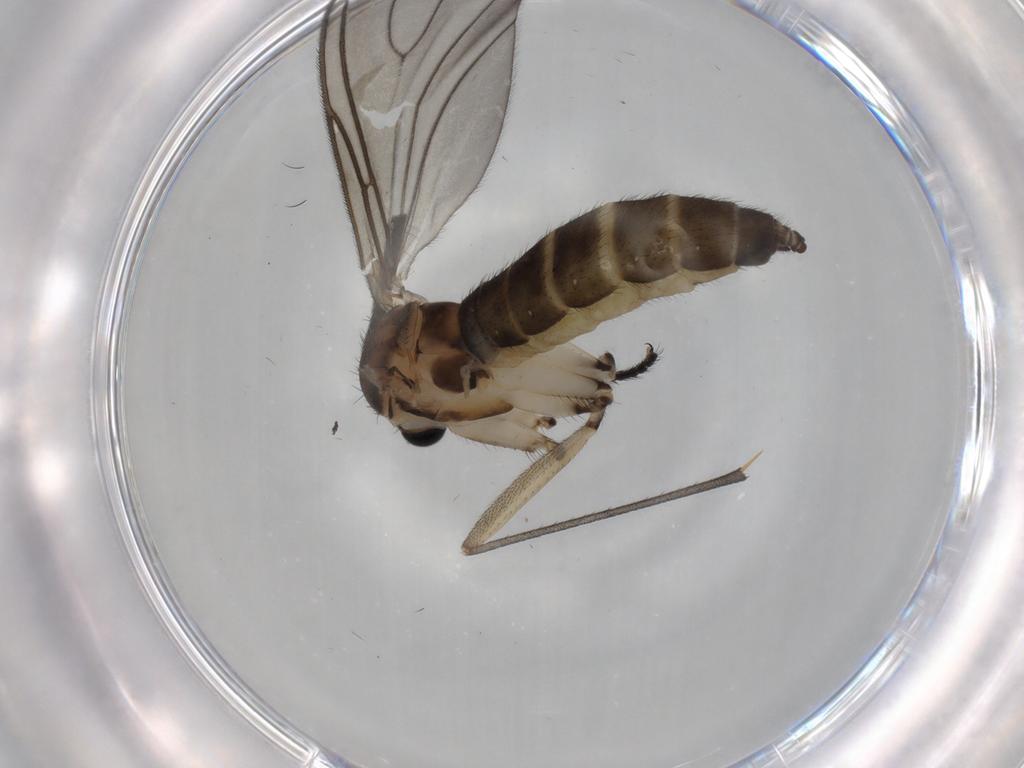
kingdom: Animalia
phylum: Arthropoda
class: Insecta
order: Diptera
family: Sciaridae
